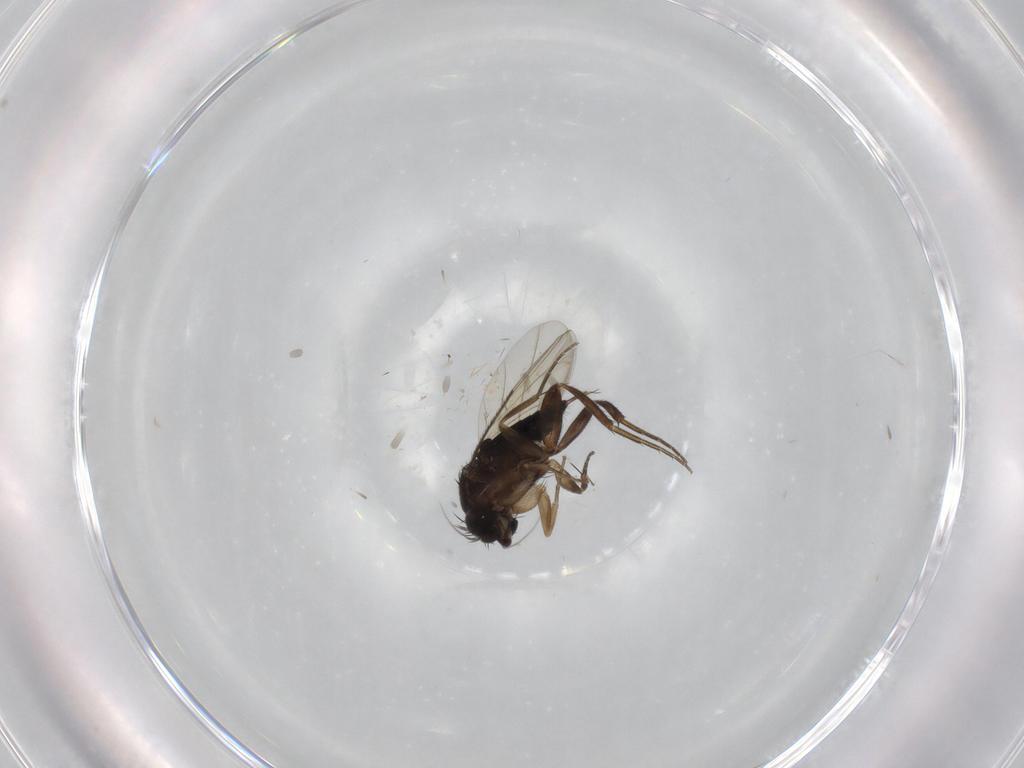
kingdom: Animalia
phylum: Arthropoda
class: Insecta
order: Diptera
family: Phoridae
